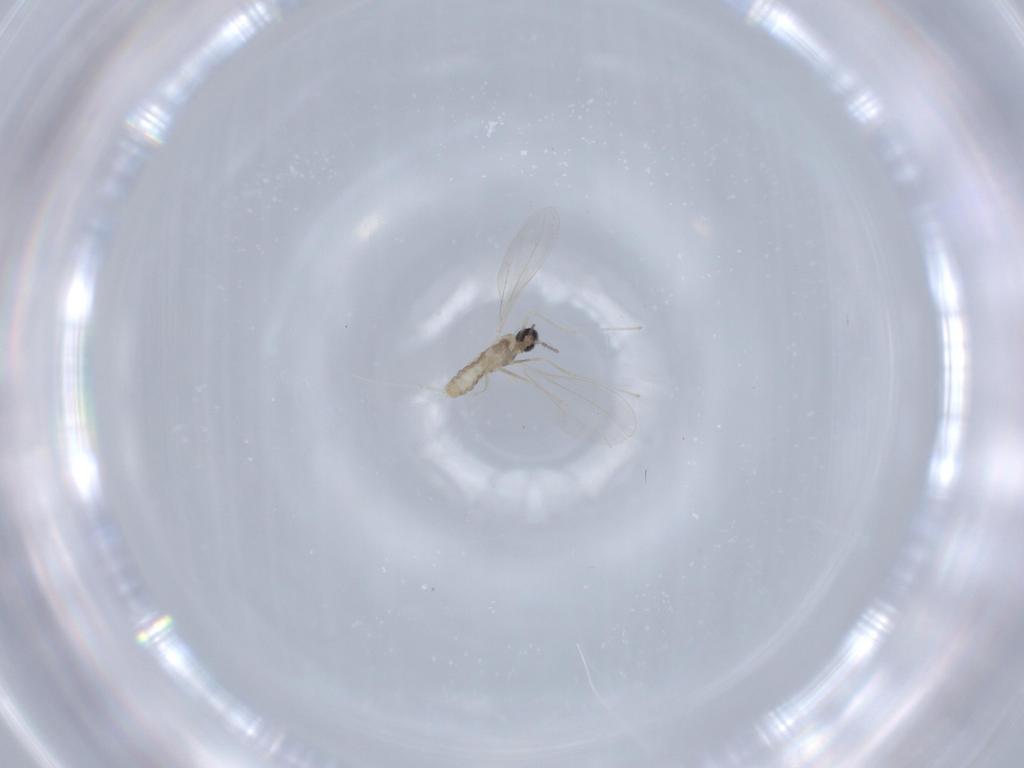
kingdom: Animalia
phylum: Arthropoda
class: Insecta
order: Diptera
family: Cecidomyiidae
